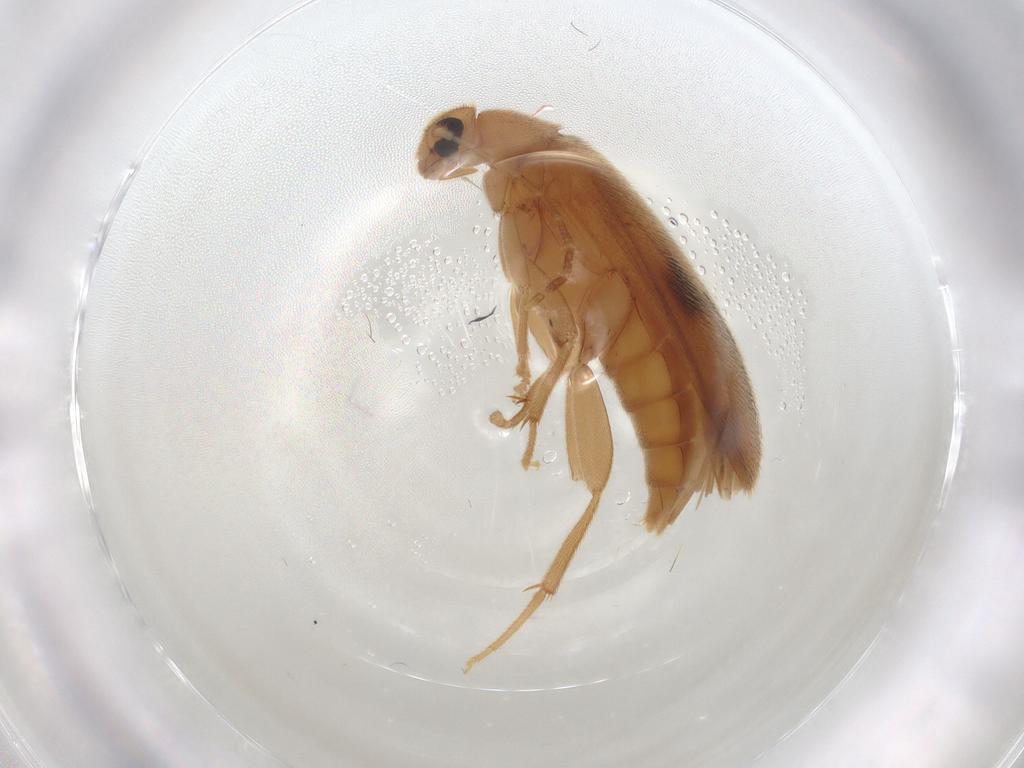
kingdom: Animalia
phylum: Arthropoda
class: Insecta
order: Coleoptera
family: Scraptiidae
